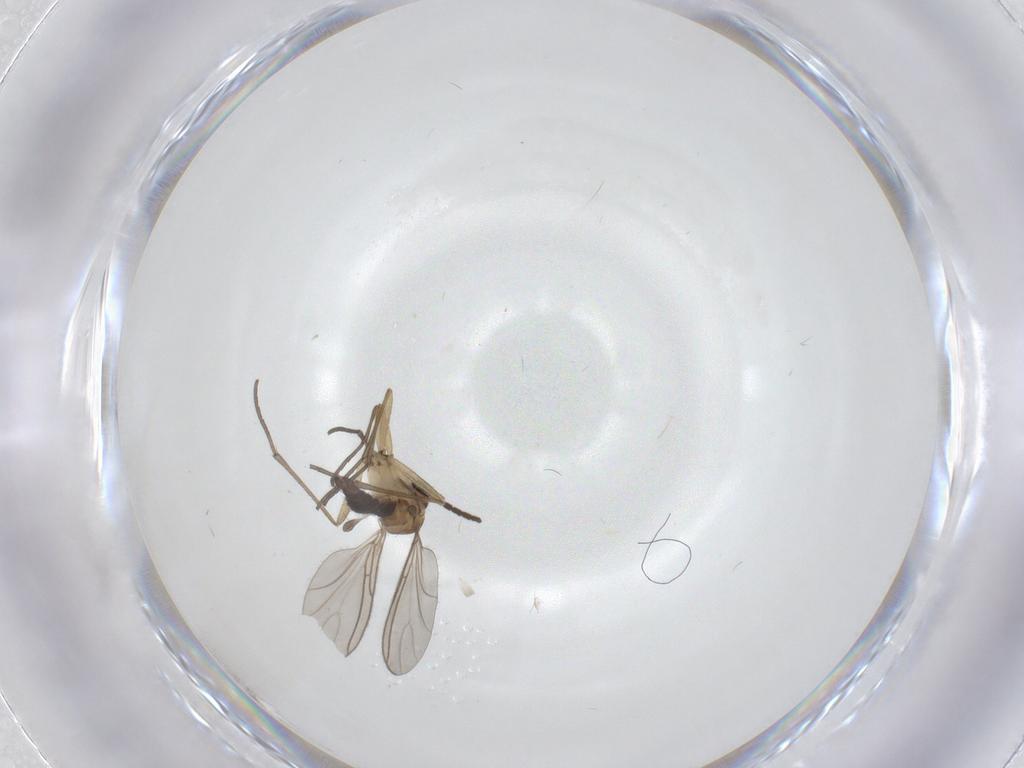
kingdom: Animalia
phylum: Arthropoda
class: Insecta
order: Diptera
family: Sciaridae
